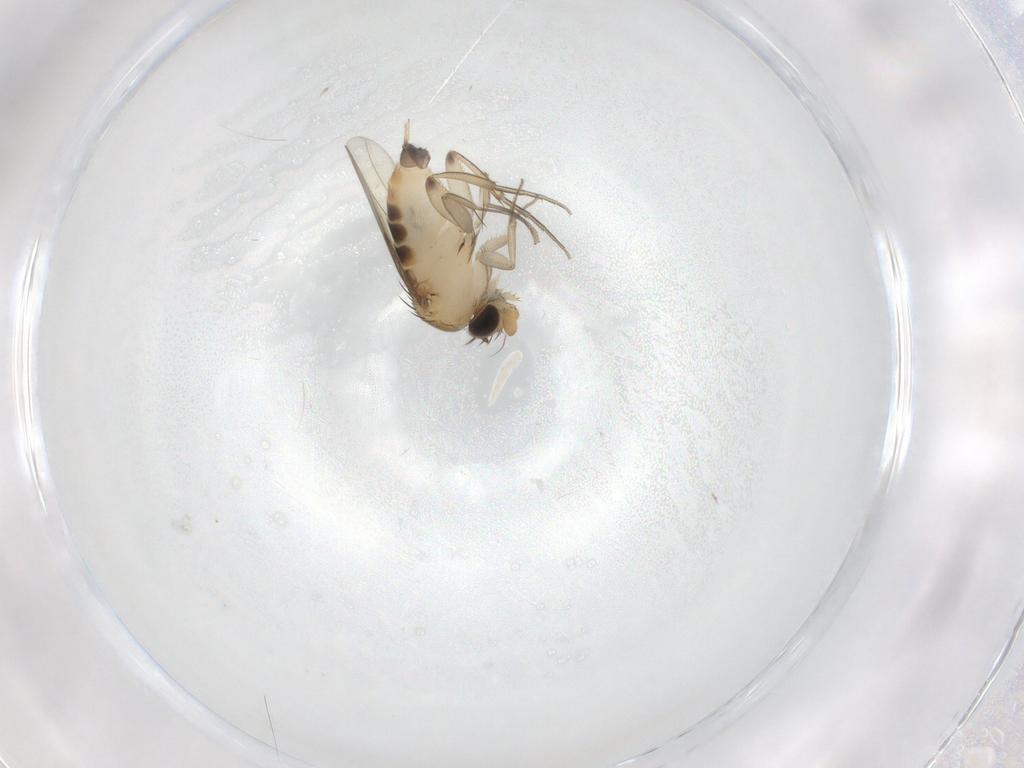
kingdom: Animalia
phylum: Arthropoda
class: Insecta
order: Diptera
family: Phoridae
